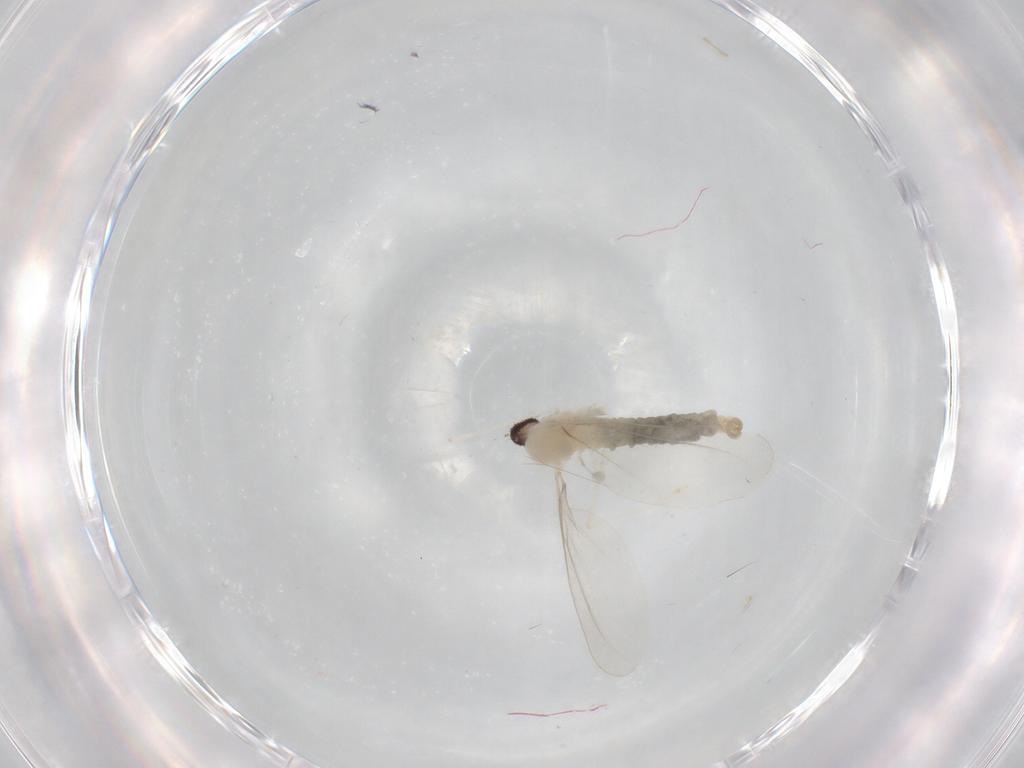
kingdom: Animalia
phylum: Arthropoda
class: Insecta
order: Diptera
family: Cecidomyiidae
